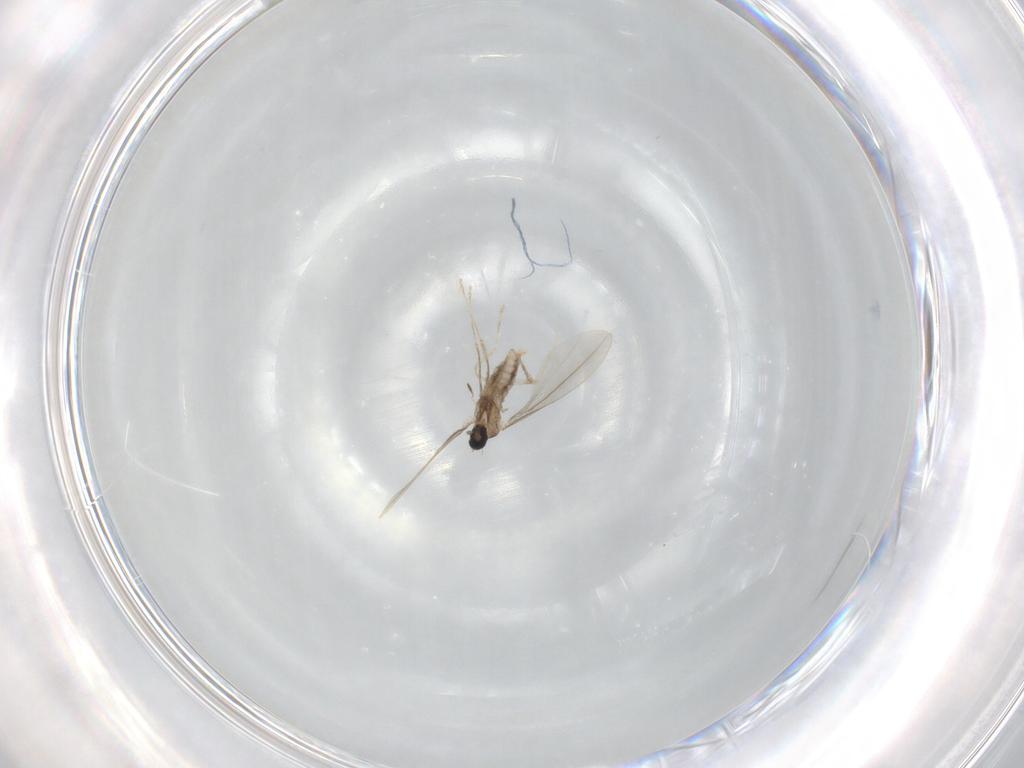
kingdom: Animalia
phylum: Arthropoda
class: Insecta
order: Diptera
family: Cecidomyiidae
